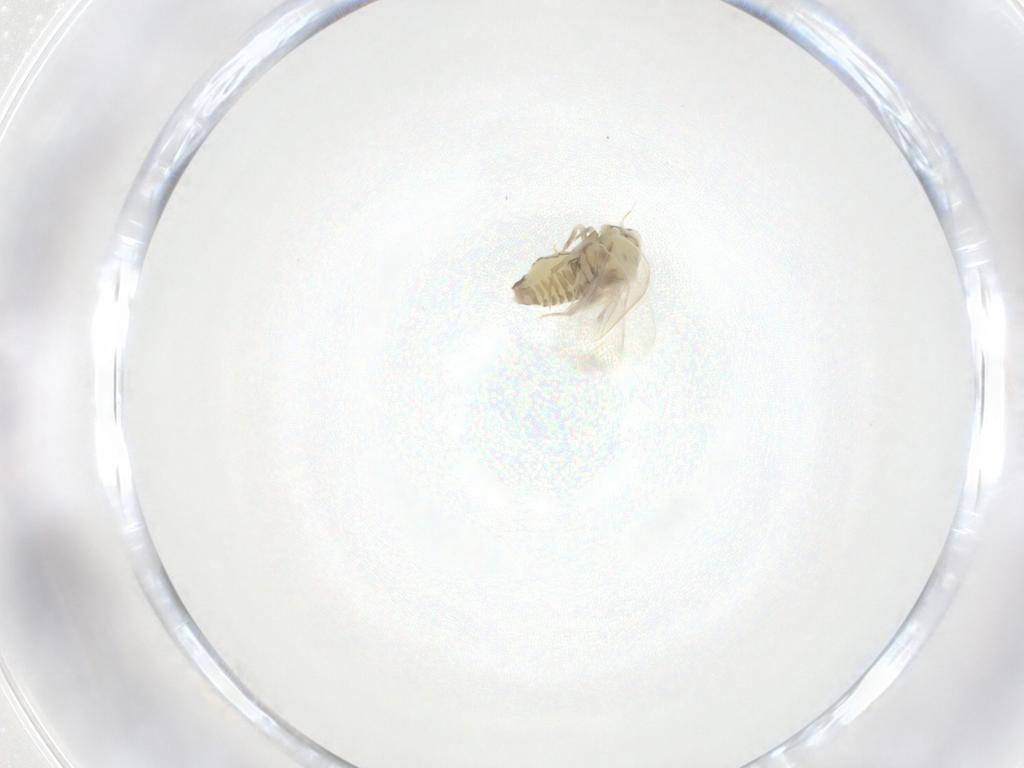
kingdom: Animalia
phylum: Arthropoda
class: Insecta
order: Hemiptera
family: Aleyrodidae
